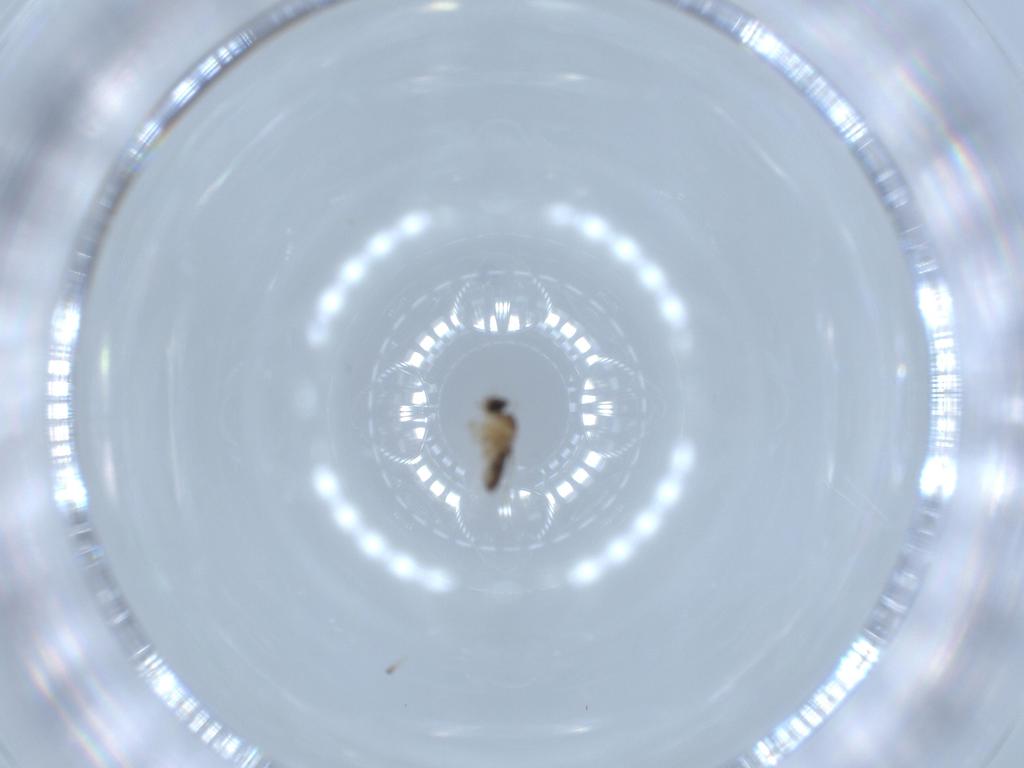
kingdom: Animalia
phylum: Arthropoda
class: Insecta
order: Diptera
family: Phoridae
